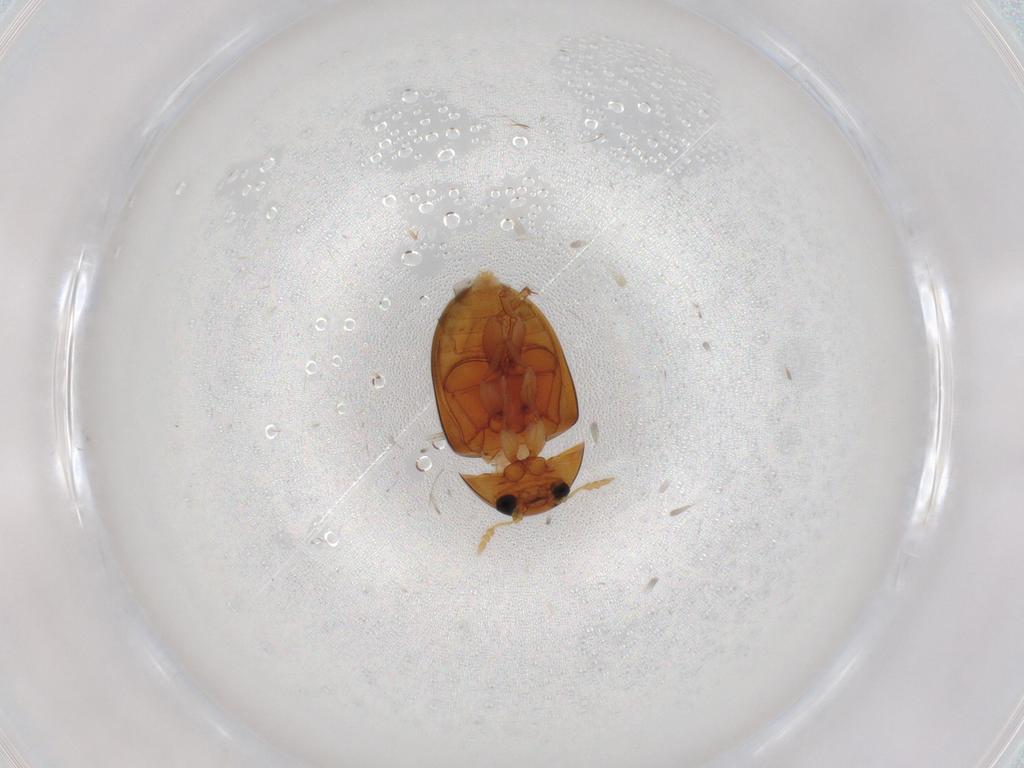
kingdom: Animalia
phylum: Arthropoda
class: Insecta
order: Coleoptera
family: Phalacridae
